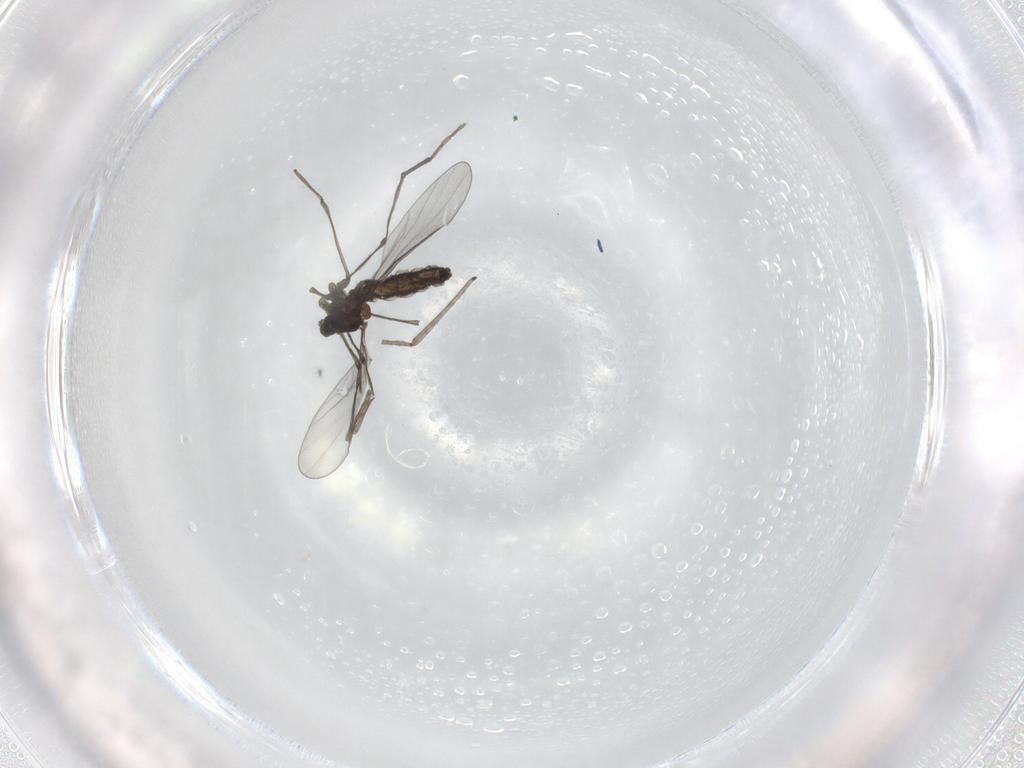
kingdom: Animalia
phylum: Arthropoda
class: Insecta
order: Diptera
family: Cecidomyiidae
